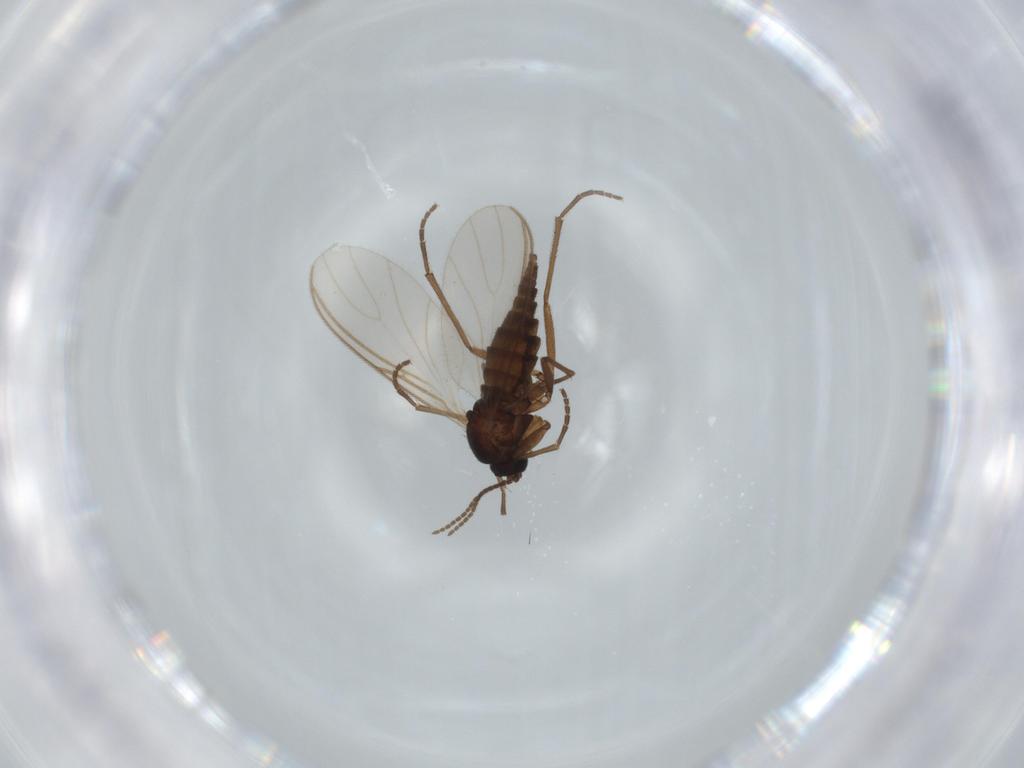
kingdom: Animalia
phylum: Arthropoda
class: Insecta
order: Diptera
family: Sciaridae
